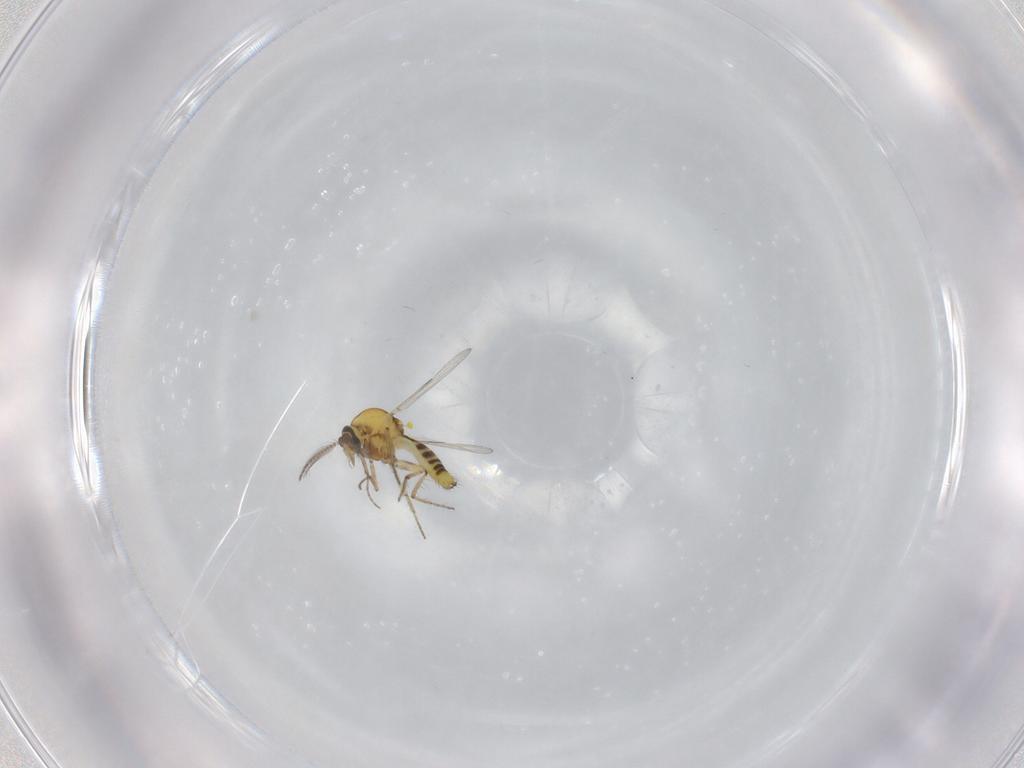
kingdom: Animalia
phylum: Arthropoda
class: Insecta
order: Diptera
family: Ceratopogonidae
